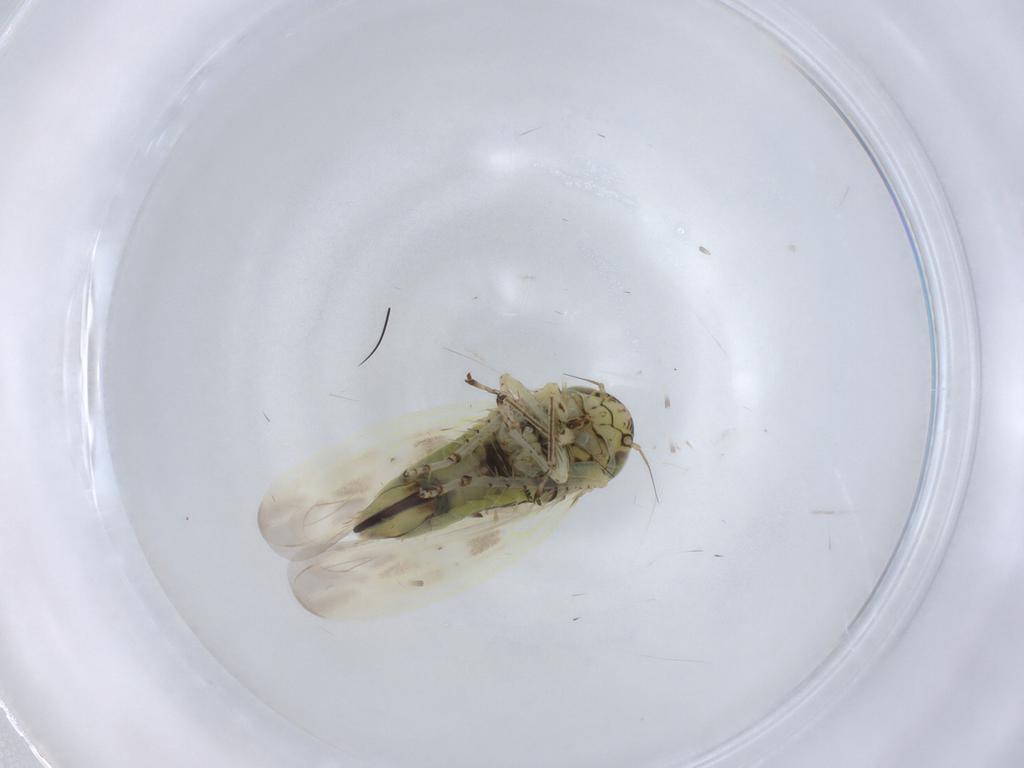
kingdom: Animalia
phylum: Arthropoda
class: Insecta
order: Hemiptera
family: Cicadellidae
